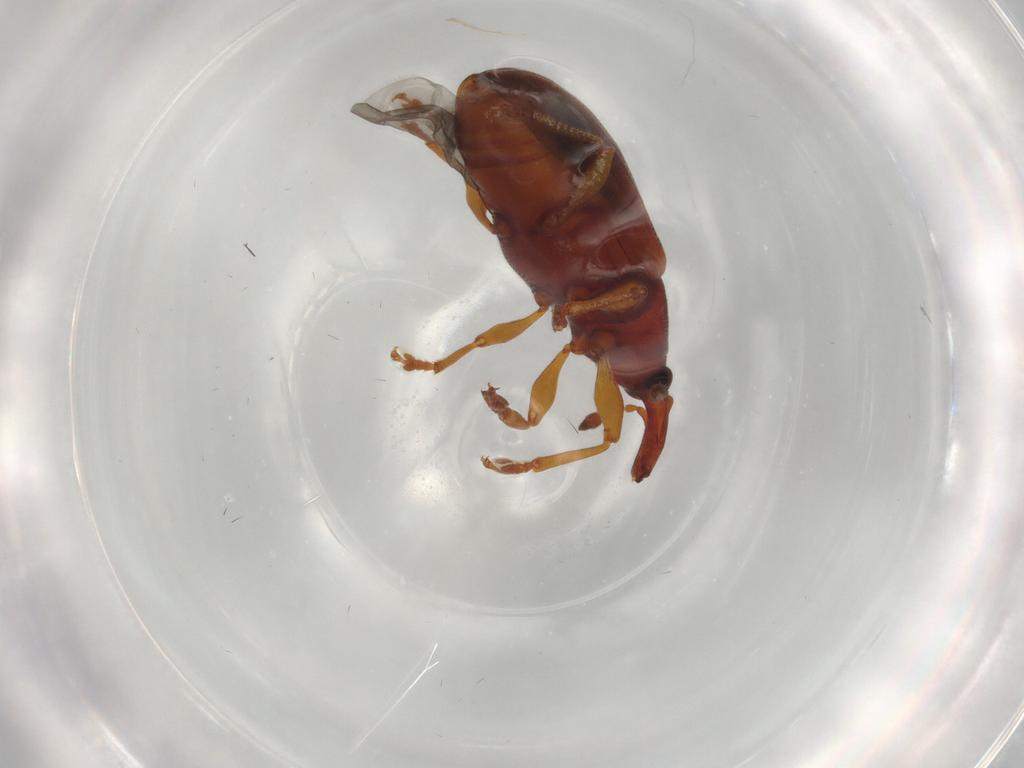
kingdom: Animalia
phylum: Arthropoda
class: Insecta
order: Coleoptera
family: Curculionidae
